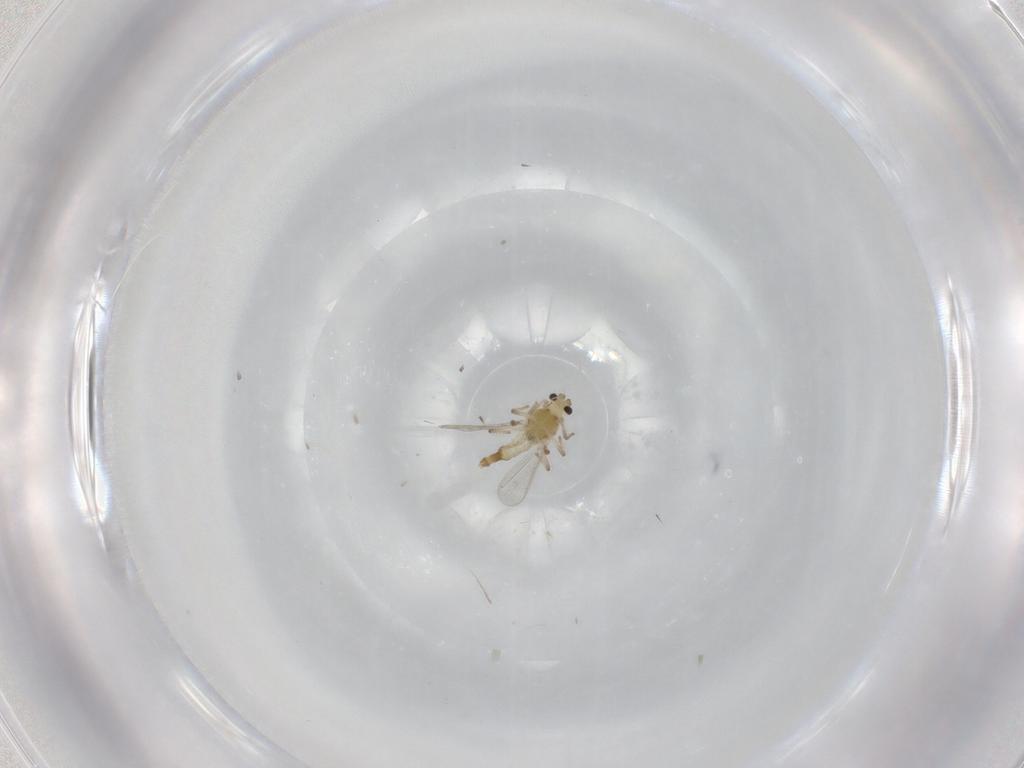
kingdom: Animalia
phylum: Arthropoda
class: Insecta
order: Diptera
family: Chironomidae
